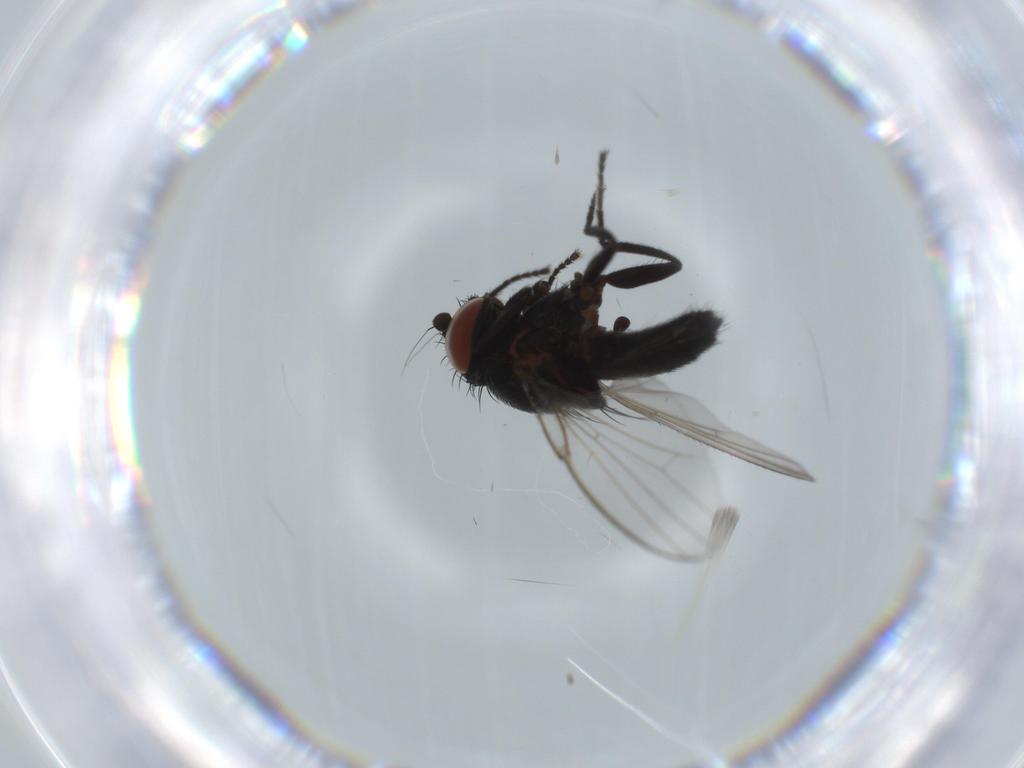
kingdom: Animalia
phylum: Arthropoda
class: Insecta
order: Diptera
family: Milichiidae
